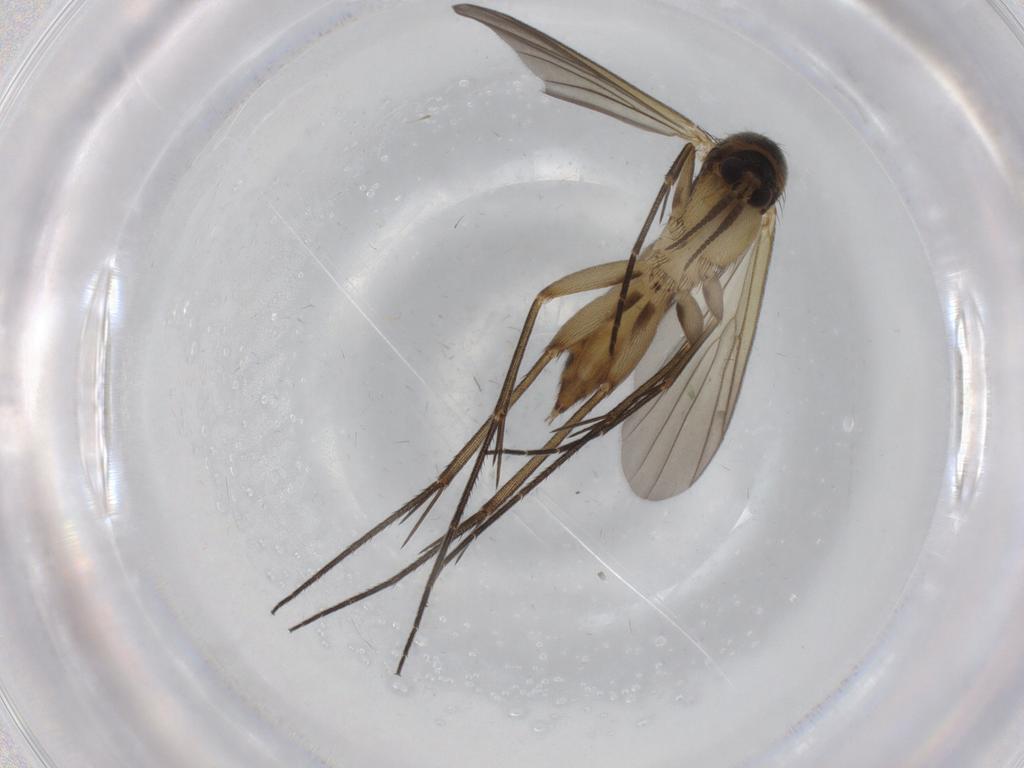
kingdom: Animalia
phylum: Arthropoda
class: Insecta
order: Diptera
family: Mycetophilidae
